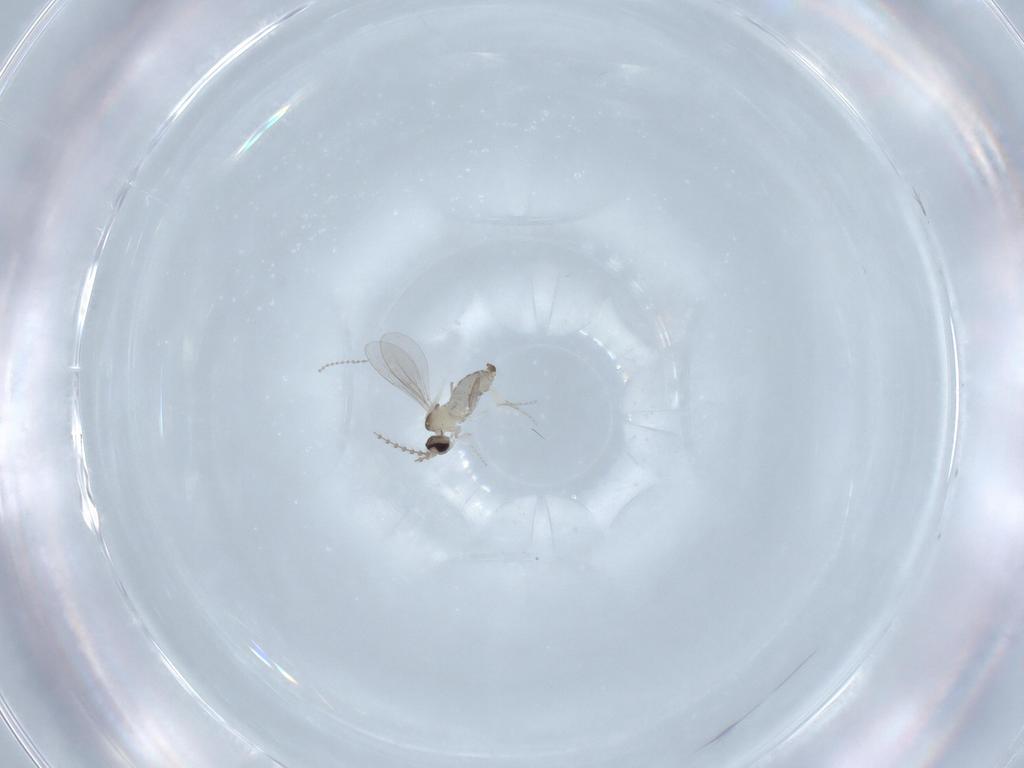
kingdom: Animalia
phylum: Arthropoda
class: Insecta
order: Diptera
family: Cecidomyiidae
